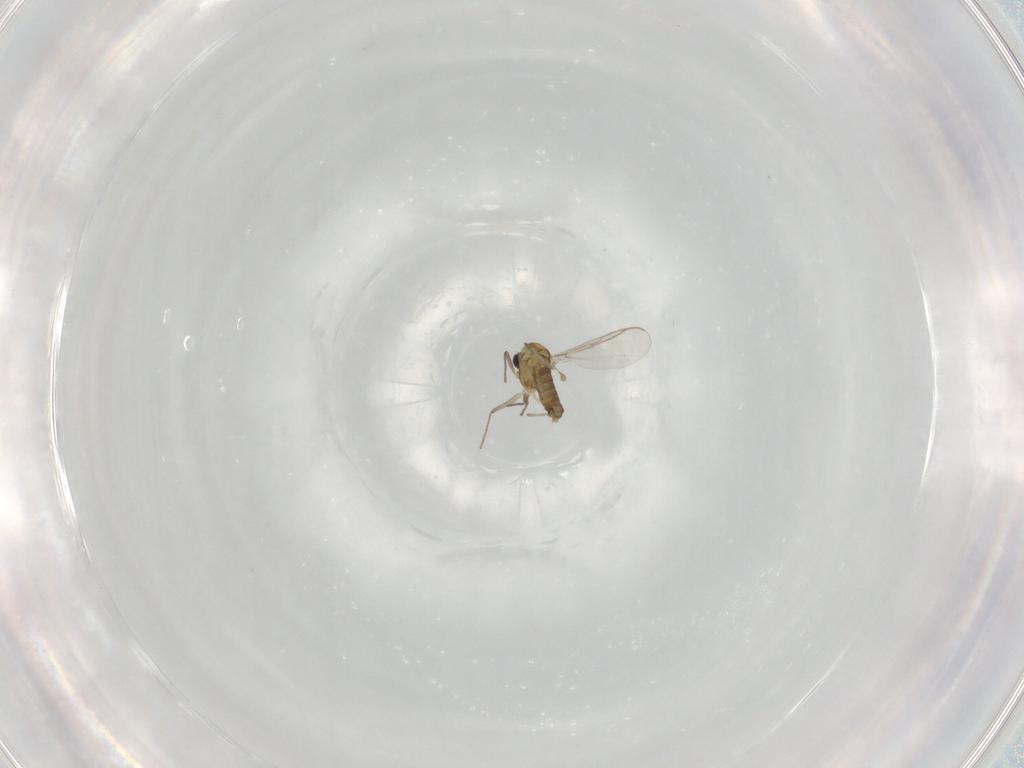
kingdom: Animalia
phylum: Arthropoda
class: Insecta
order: Diptera
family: Chironomidae
